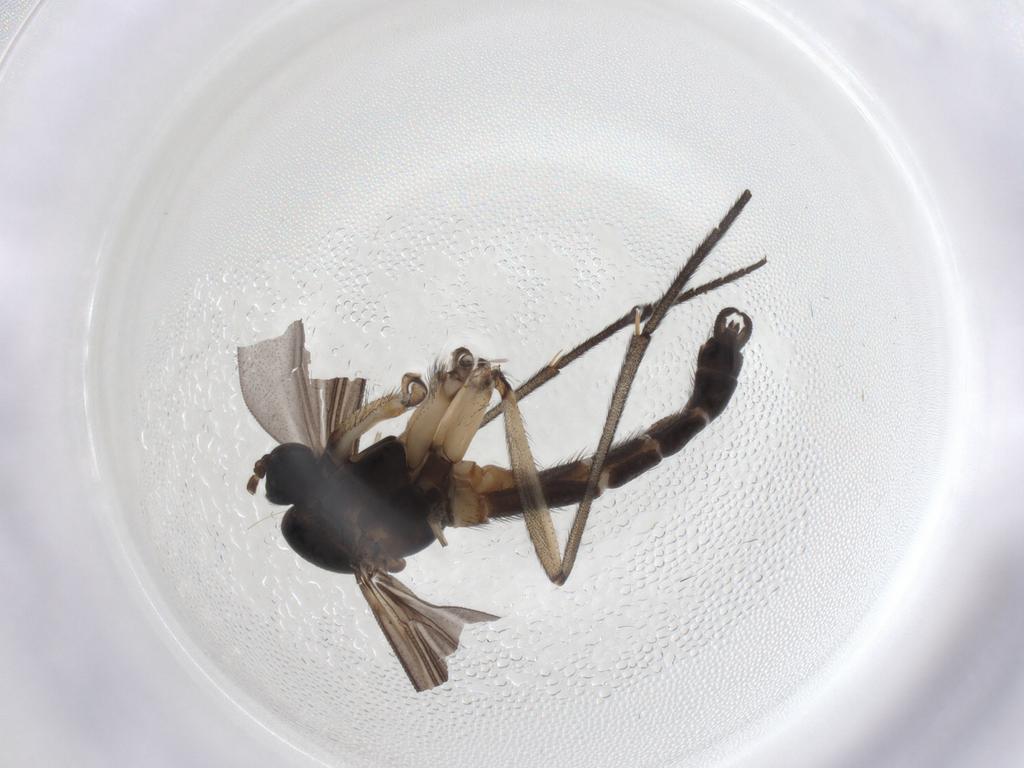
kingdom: Animalia
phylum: Arthropoda
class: Insecta
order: Diptera
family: Sciaridae
